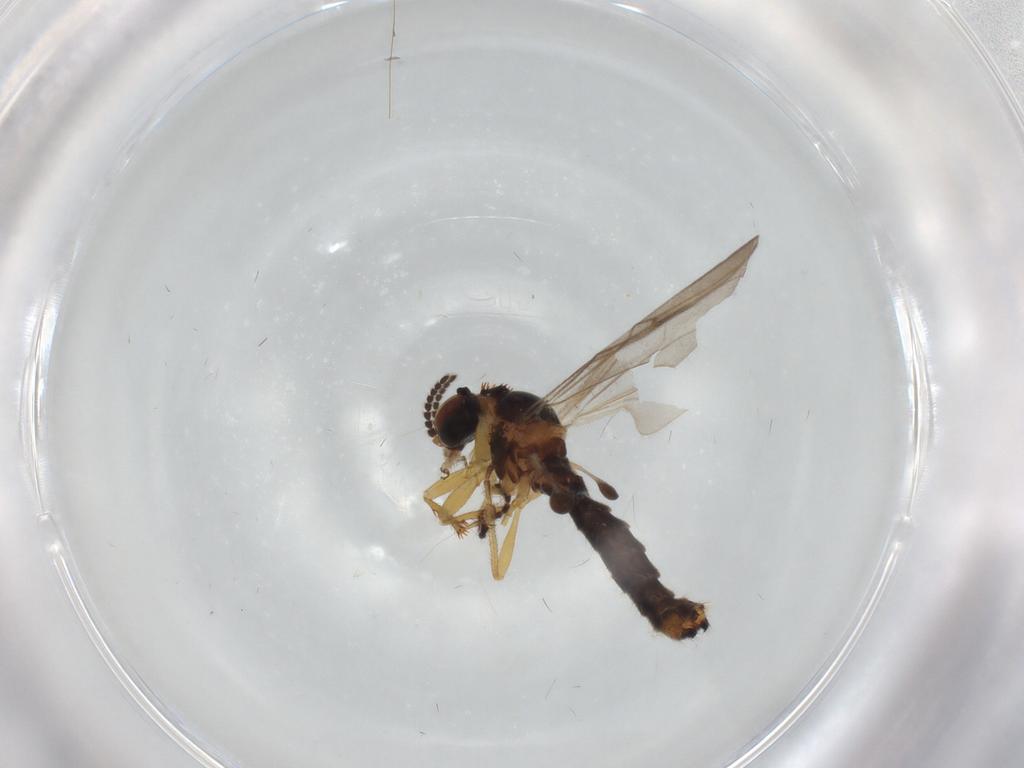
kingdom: Animalia
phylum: Arthropoda
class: Insecta
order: Diptera
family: Bibionidae
